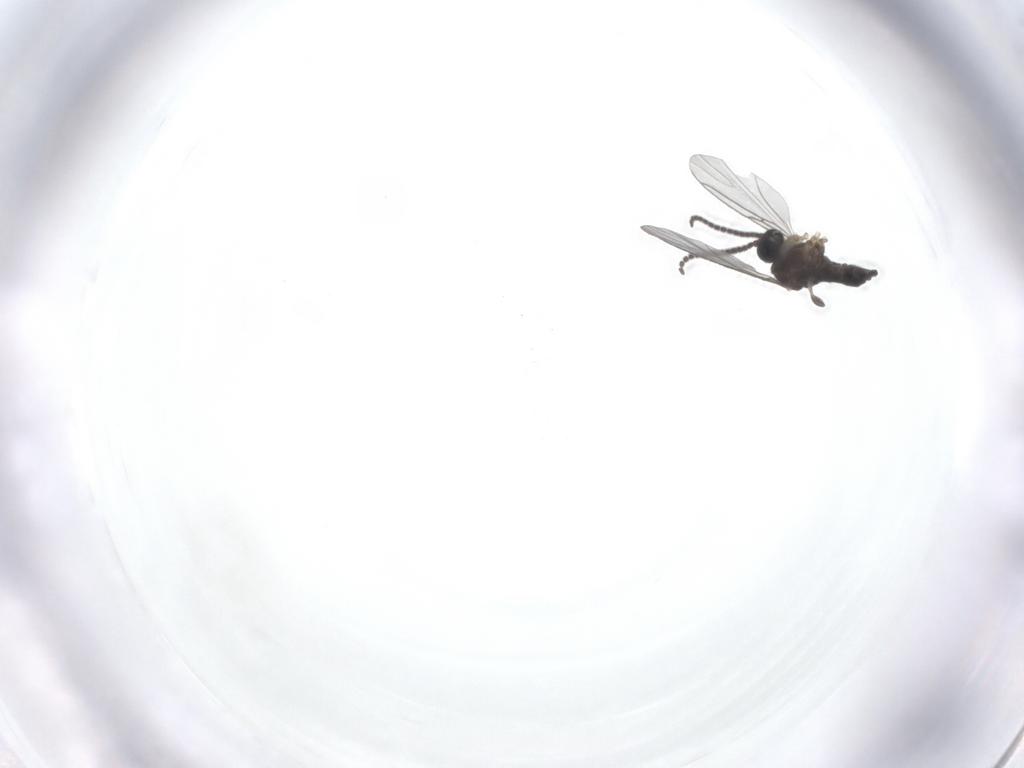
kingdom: Animalia
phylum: Arthropoda
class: Insecta
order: Diptera
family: Sciaridae
